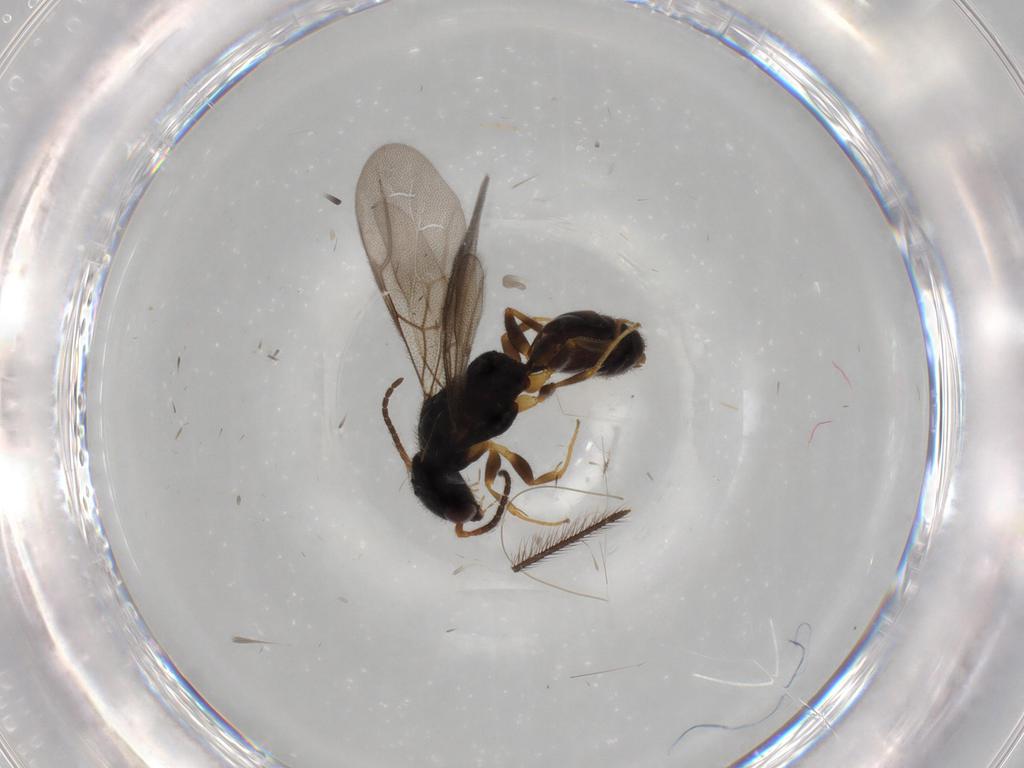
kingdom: Animalia
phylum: Arthropoda
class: Insecta
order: Hymenoptera
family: Bethylidae
